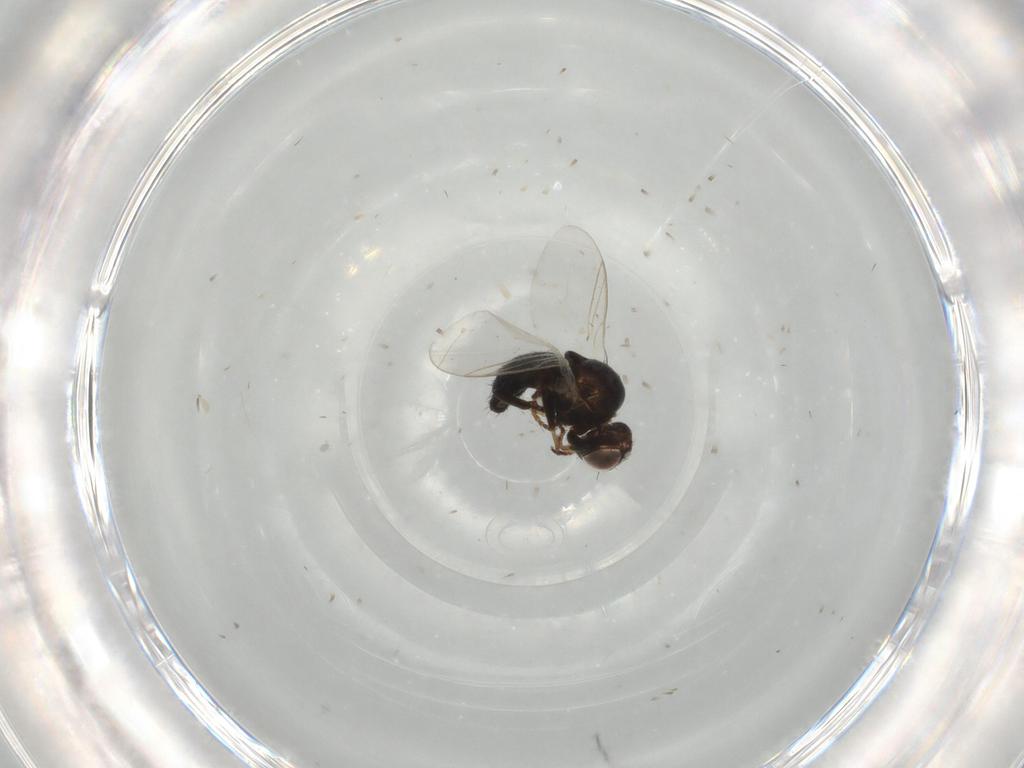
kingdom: Animalia
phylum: Arthropoda
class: Insecta
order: Diptera
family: Agromyzidae
